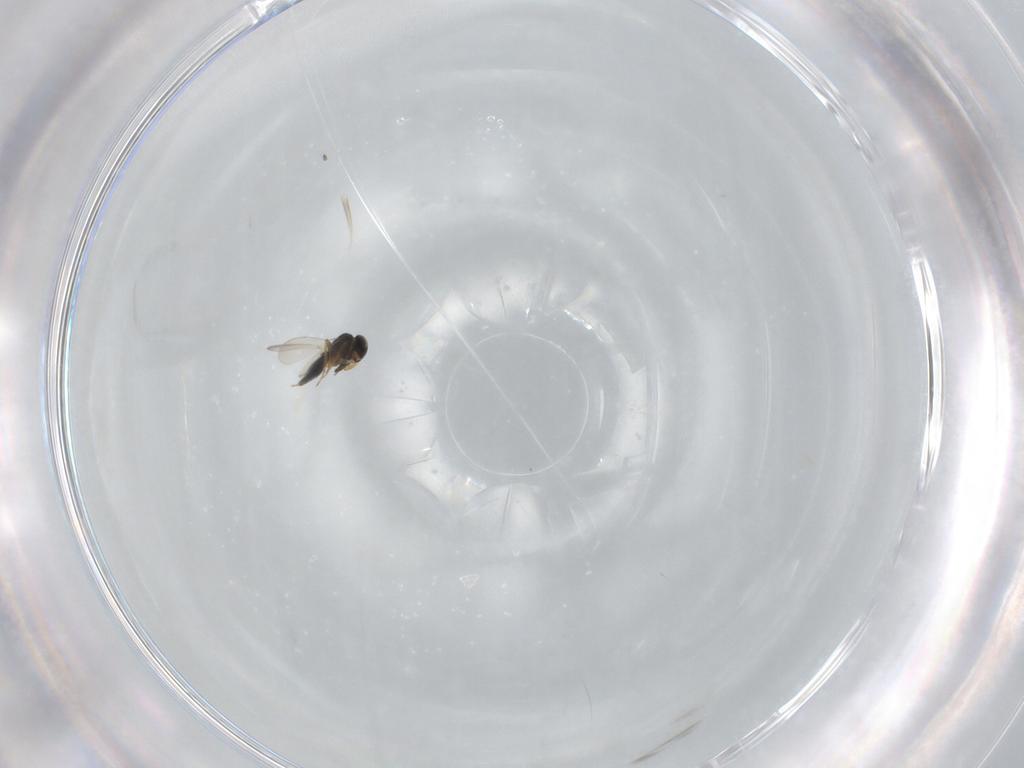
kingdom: Animalia
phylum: Arthropoda
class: Insecta
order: Hymenoptera
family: Platygastridae
